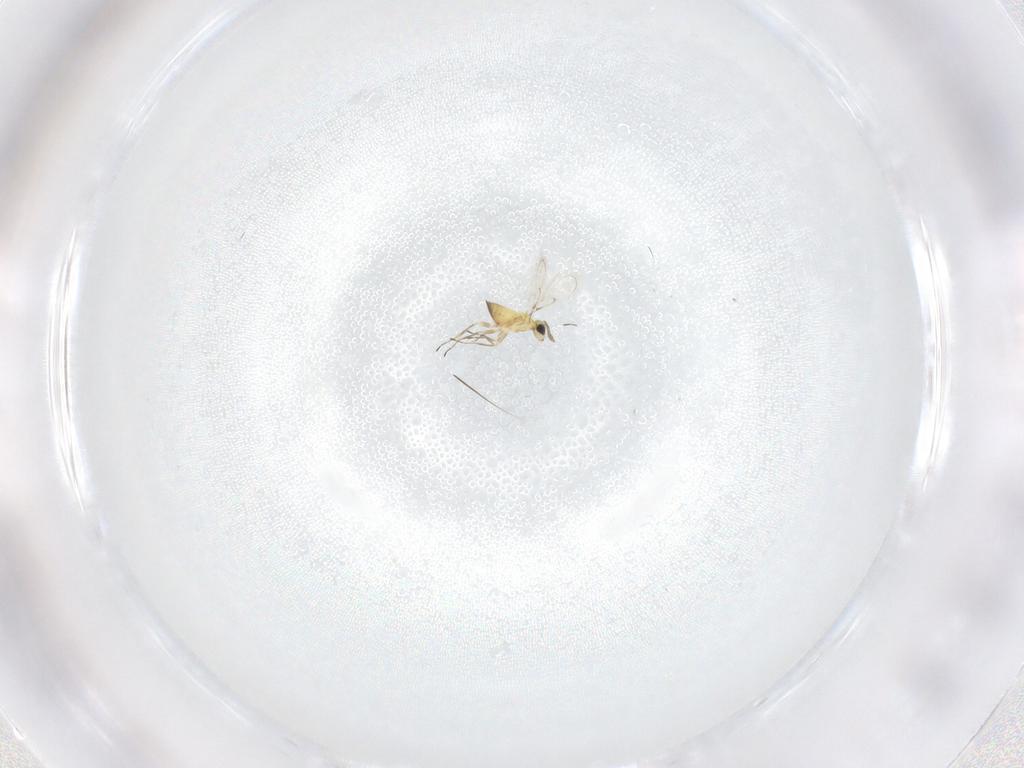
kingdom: Animalia
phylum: Arthropoda
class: Insecta
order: Hymenoptera
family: Trichogrammatidae
